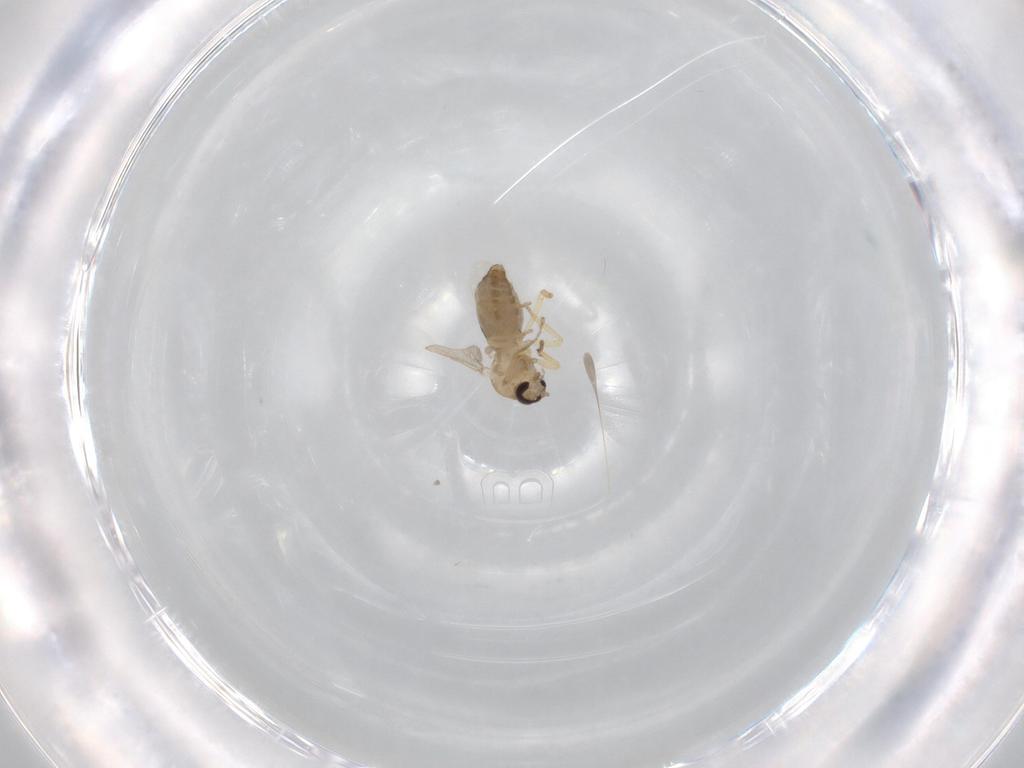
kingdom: Animalia
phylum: Arthropoda
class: Insecta
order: Diptera
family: Ceratopogonidae
